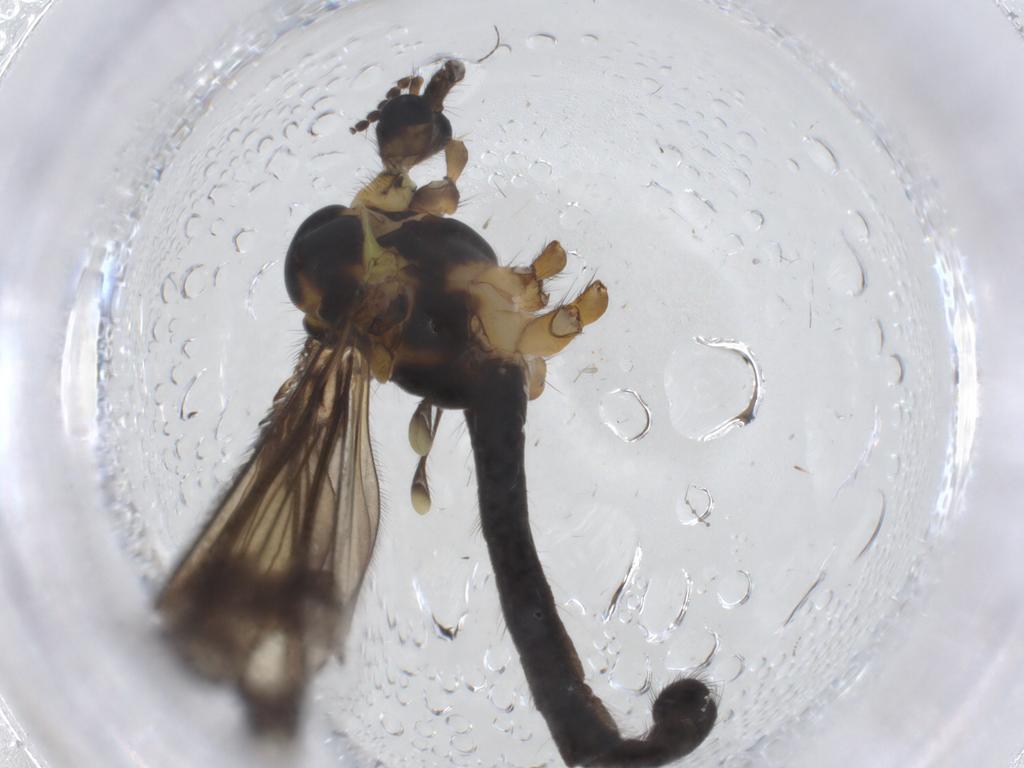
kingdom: Animalia
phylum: Arthropoda
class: Insecta
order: Diptera
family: Limoniidae
